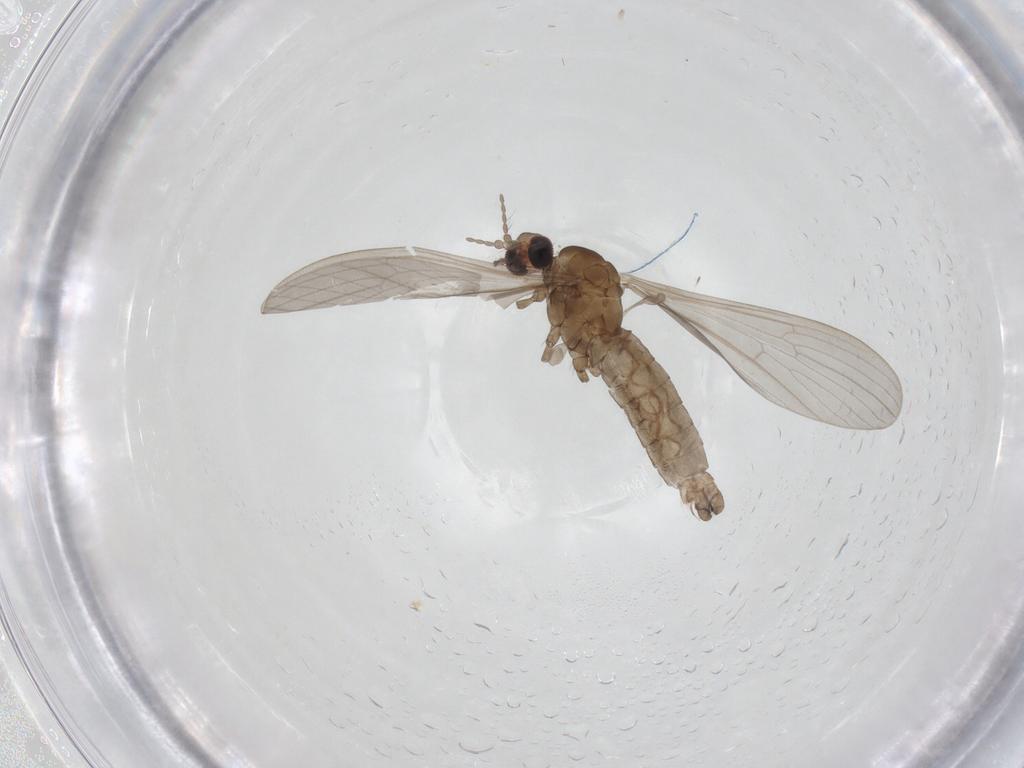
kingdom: Animalia
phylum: Arthropoda
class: Insecta
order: Diptera
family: Limoniidae
